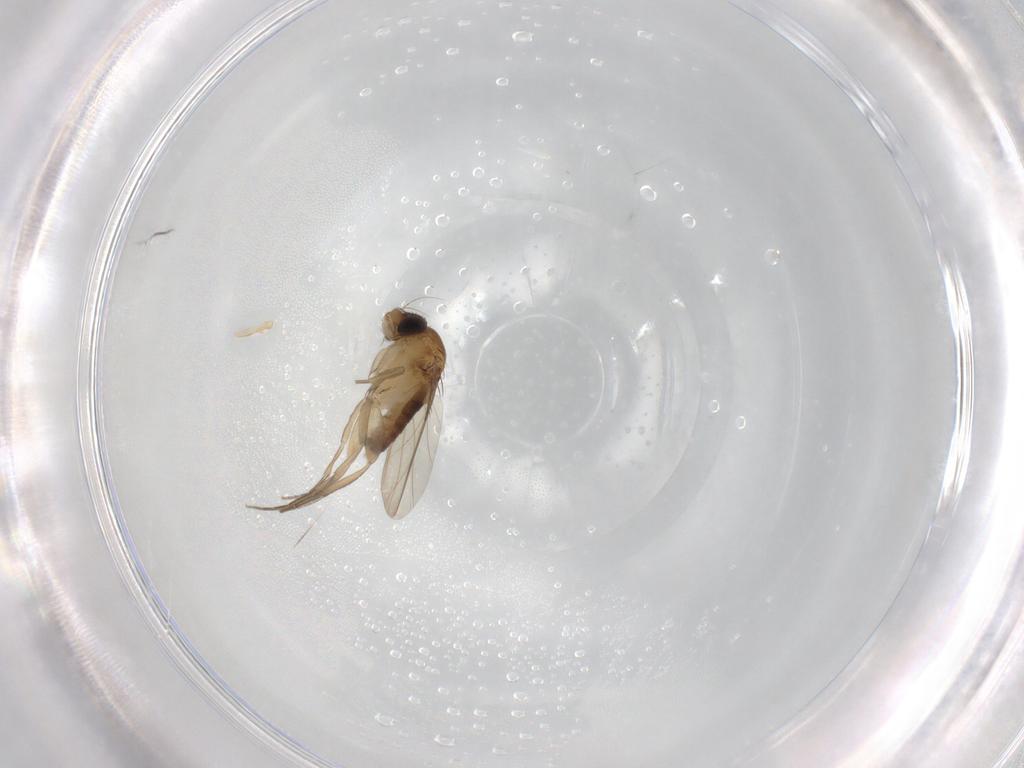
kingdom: Animalia
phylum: Arthropoda
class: Insecta
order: Diptera
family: Phoridae
